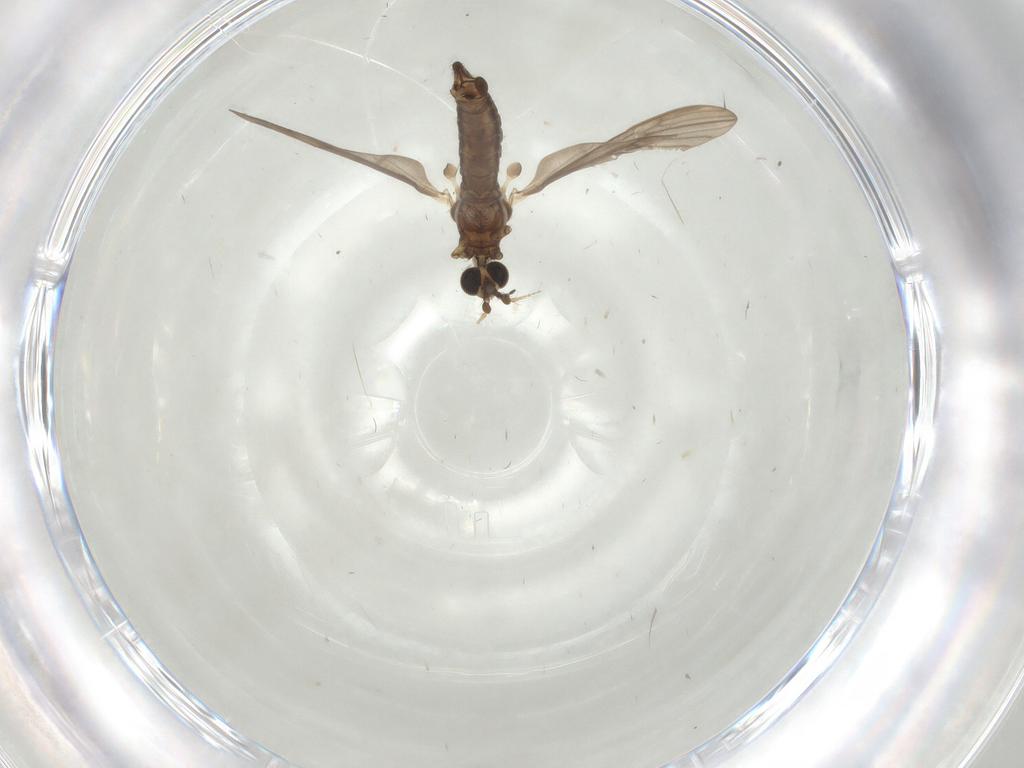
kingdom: Animalia
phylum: Arthropoda
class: Insecta
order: Diptera
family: Limoniidae
